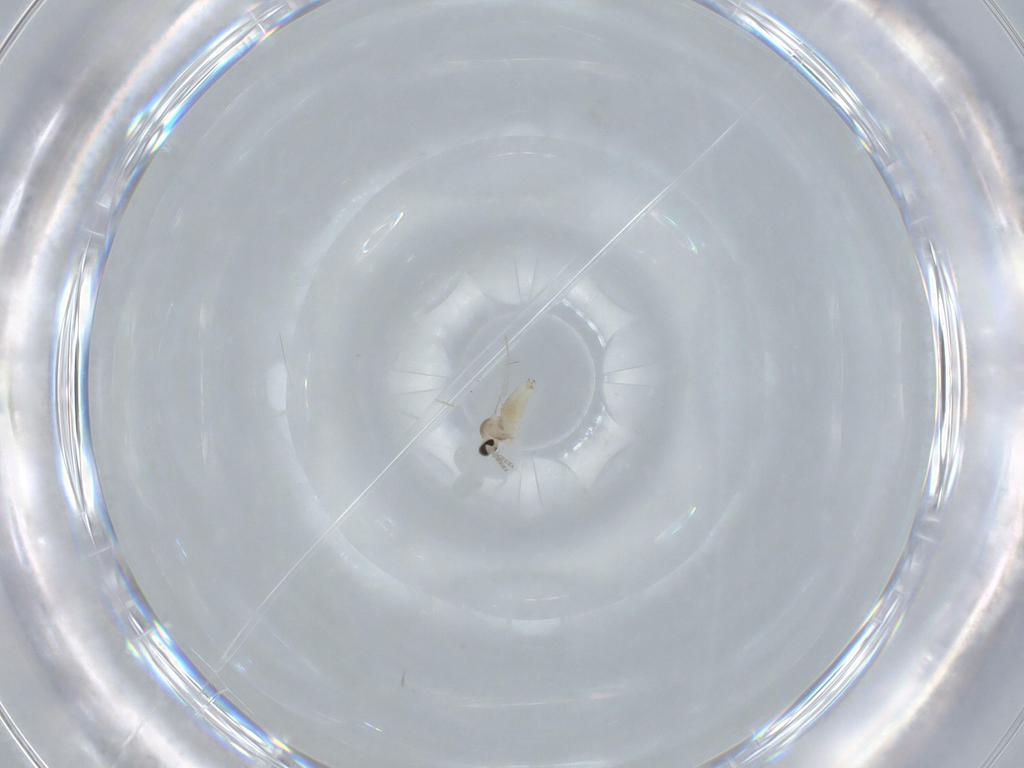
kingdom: Animalia
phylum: Arthropoda
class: Insecta
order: Diptera
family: Cecidomyiidae
